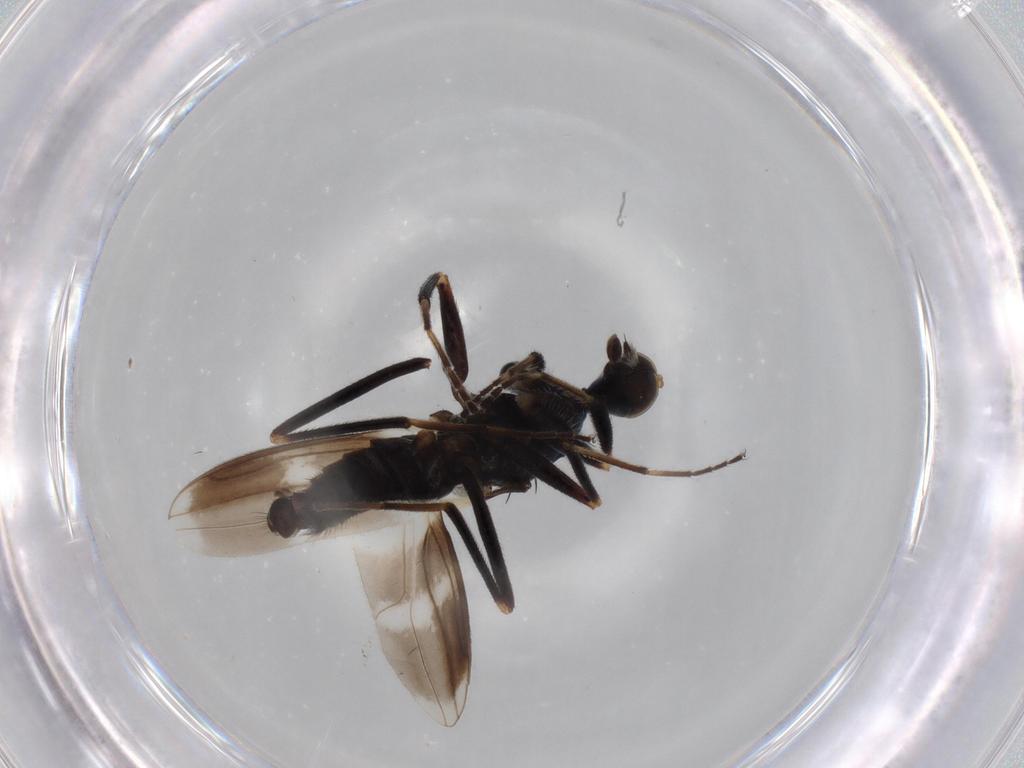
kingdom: Animalia
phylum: Arthropoda
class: Insecta
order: Diptera
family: Hybotidae
